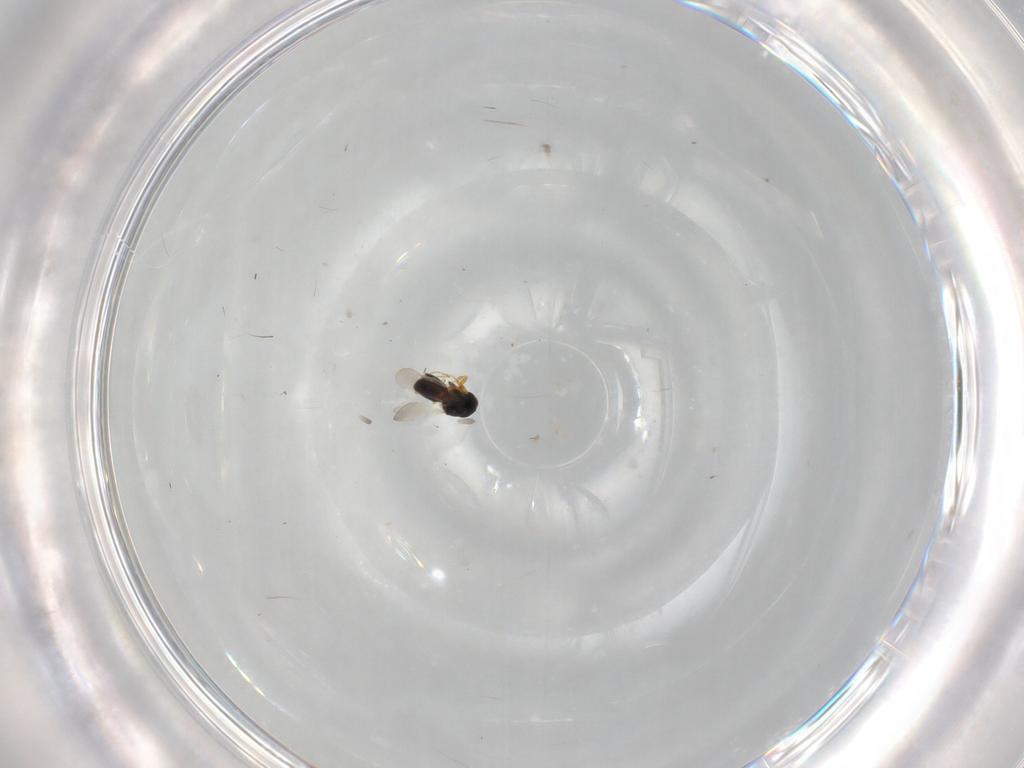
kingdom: Animalia
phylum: Arthropoda
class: Insecta
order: Hymenoptera
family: Platygastridae
